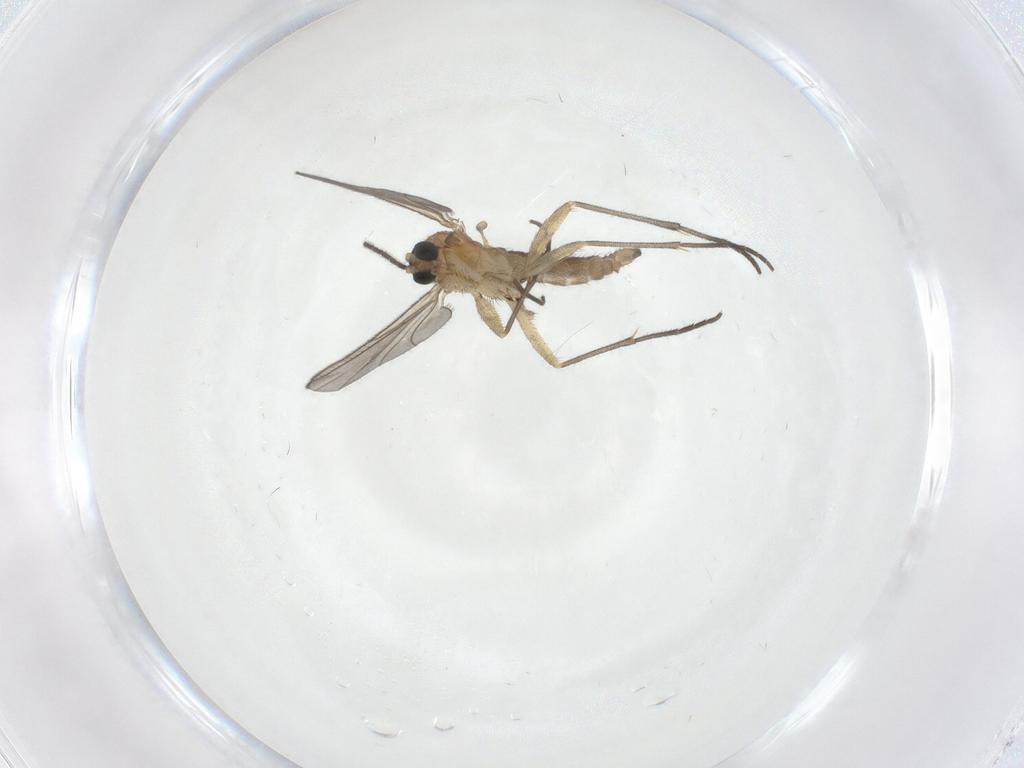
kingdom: Animalia
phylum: Arthropoda
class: Insecta
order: Diptera
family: Sciaridae
